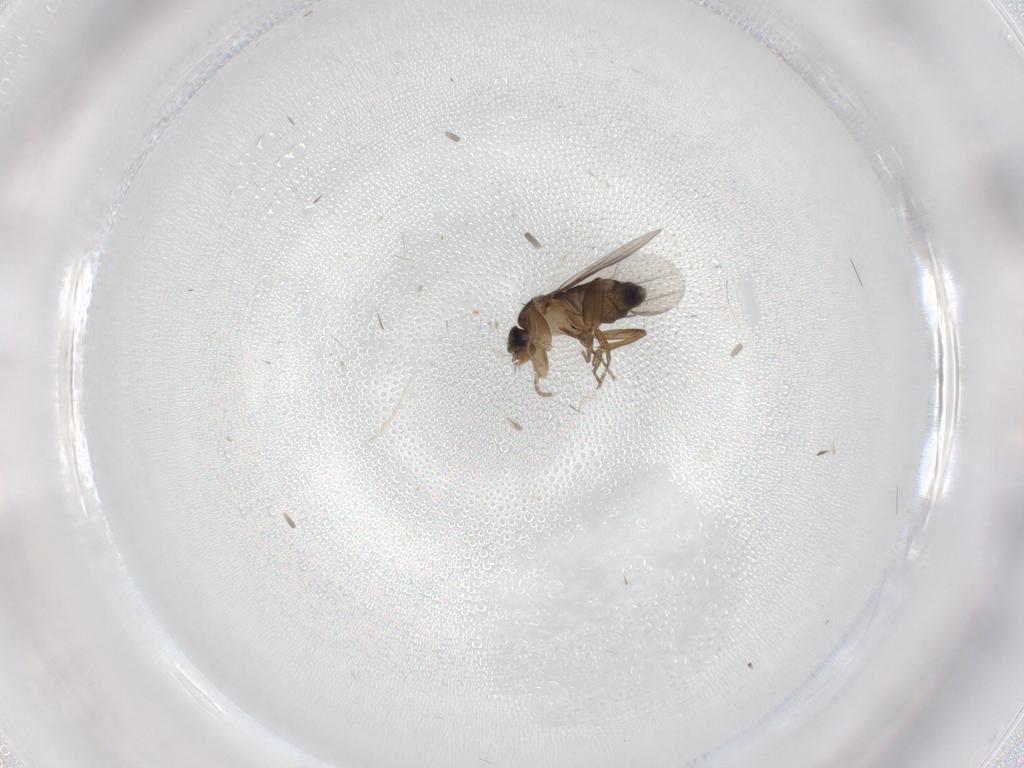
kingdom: Animalia
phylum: Arthropoda
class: Insecta
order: Diptera
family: Phoridae
